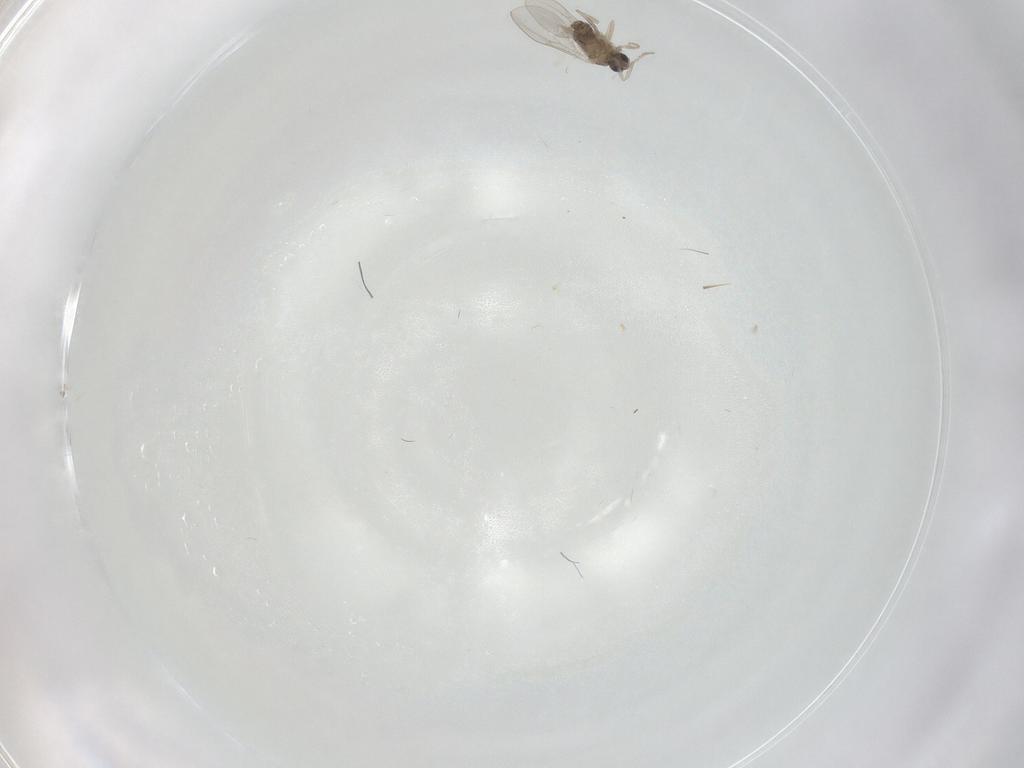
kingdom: Animalia
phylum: Arthropoda
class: Insecta
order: Diptera
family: Cecidomyiidae
